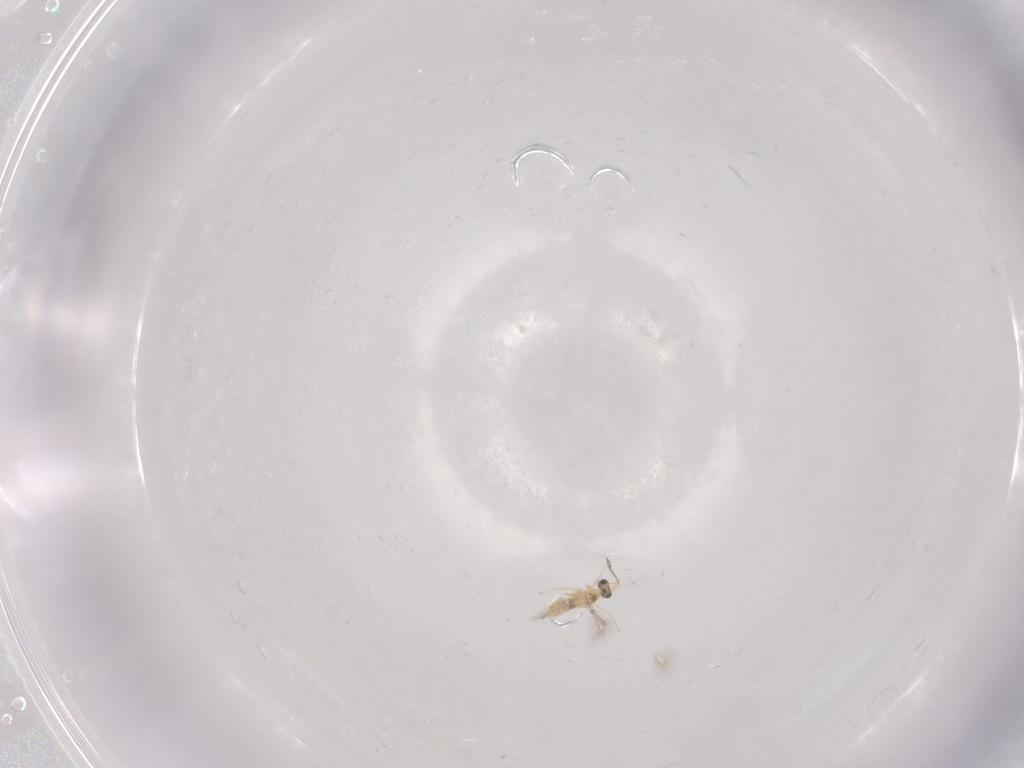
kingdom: Animalia
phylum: Arthropoda
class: Insecta
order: Hymenoptera
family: Mymaridae
